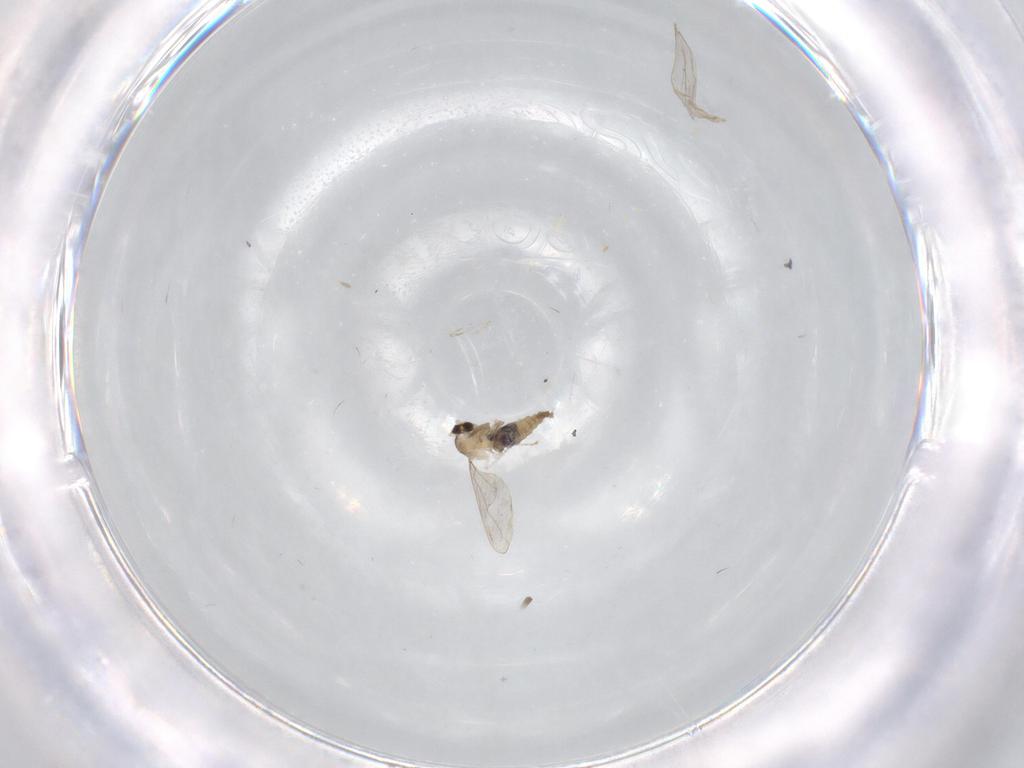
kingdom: Animalia
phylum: Arthropoda
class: Insecta
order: Diptera
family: Cecidomyiidae
